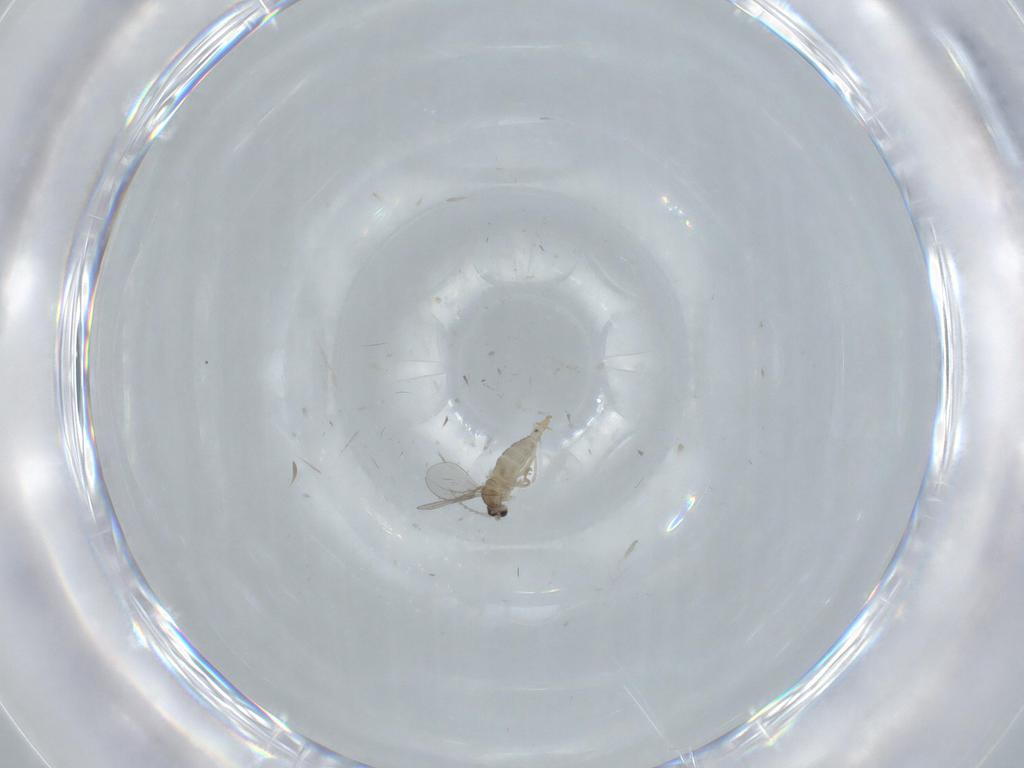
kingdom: Animalia
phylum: Arthropoda
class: Insecta
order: Diptera
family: Cecidomyiidae
